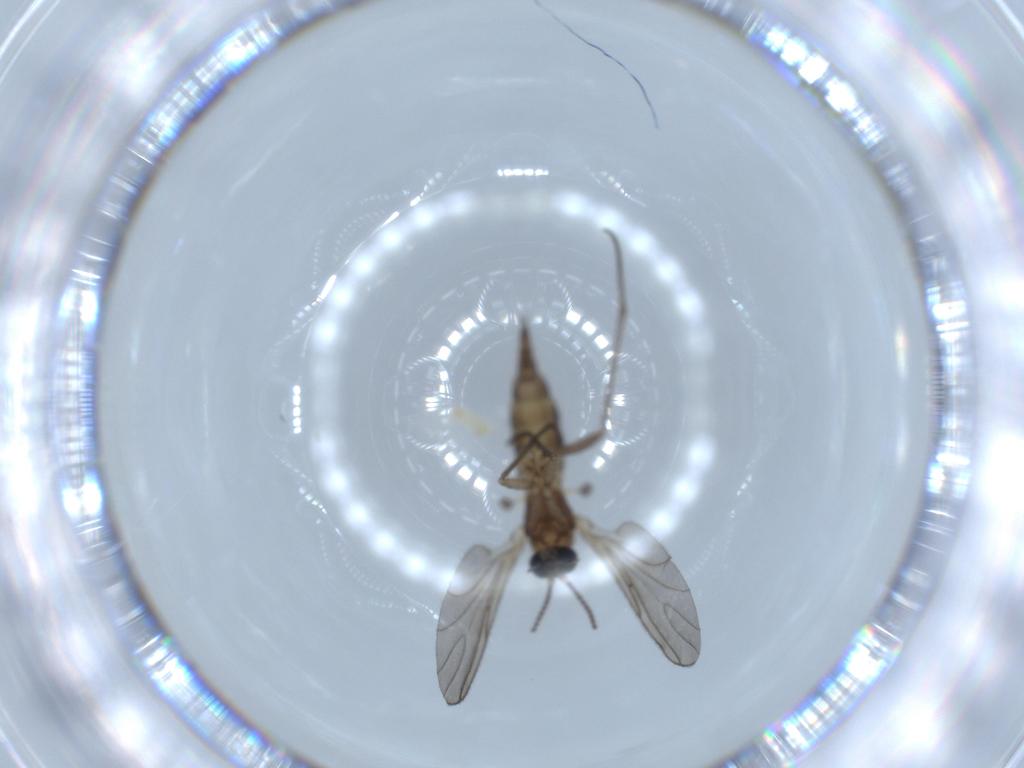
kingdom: Animalia
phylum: Arthropoda
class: Insecta
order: Diptera
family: Sciaridae
